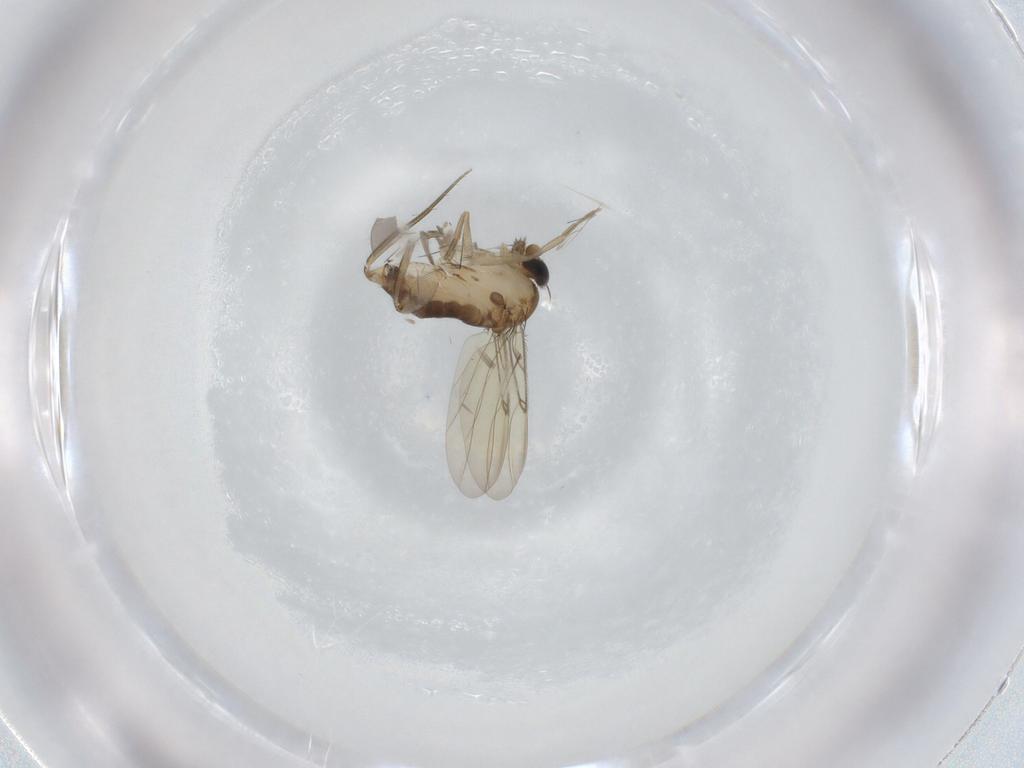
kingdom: Animalia
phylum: Arthropoda
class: Insecta
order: Diptera
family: Phoridae
